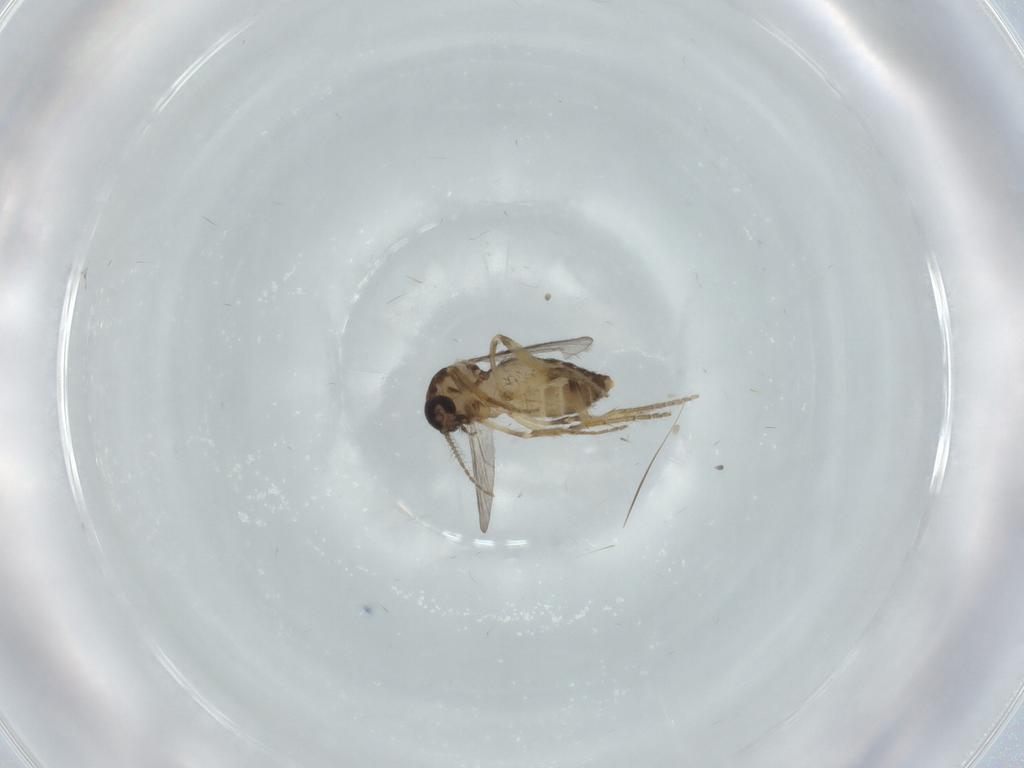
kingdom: Animalia
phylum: Arthropoda
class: Insecta
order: Diptera
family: Ceratopogonidae
